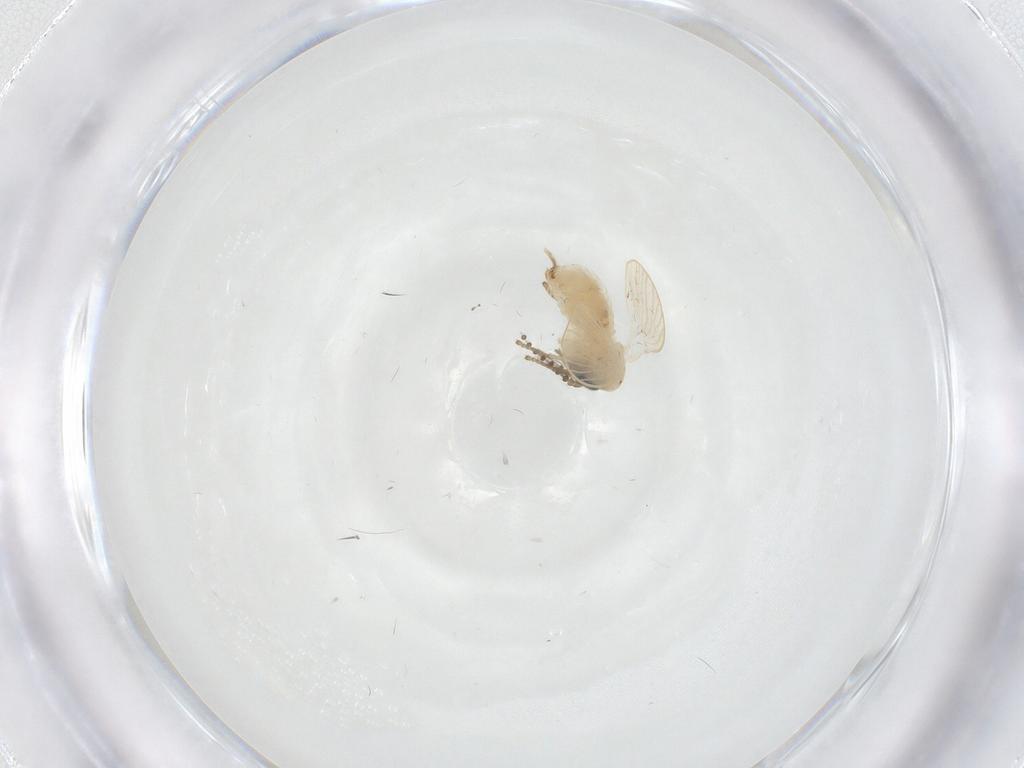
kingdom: Animalia
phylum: Arthropoda
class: Insecta
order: Diptera
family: Psychodidae
